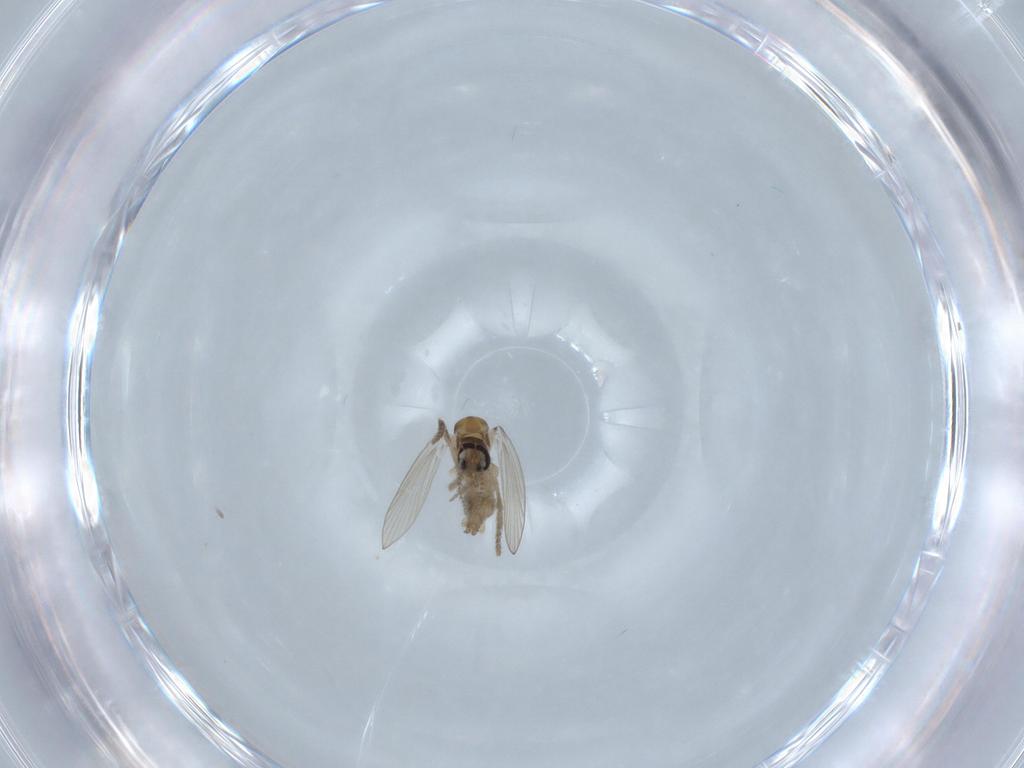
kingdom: Animalia
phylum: Arthropoda
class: Insecta
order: Diptera
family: Psychodidae
